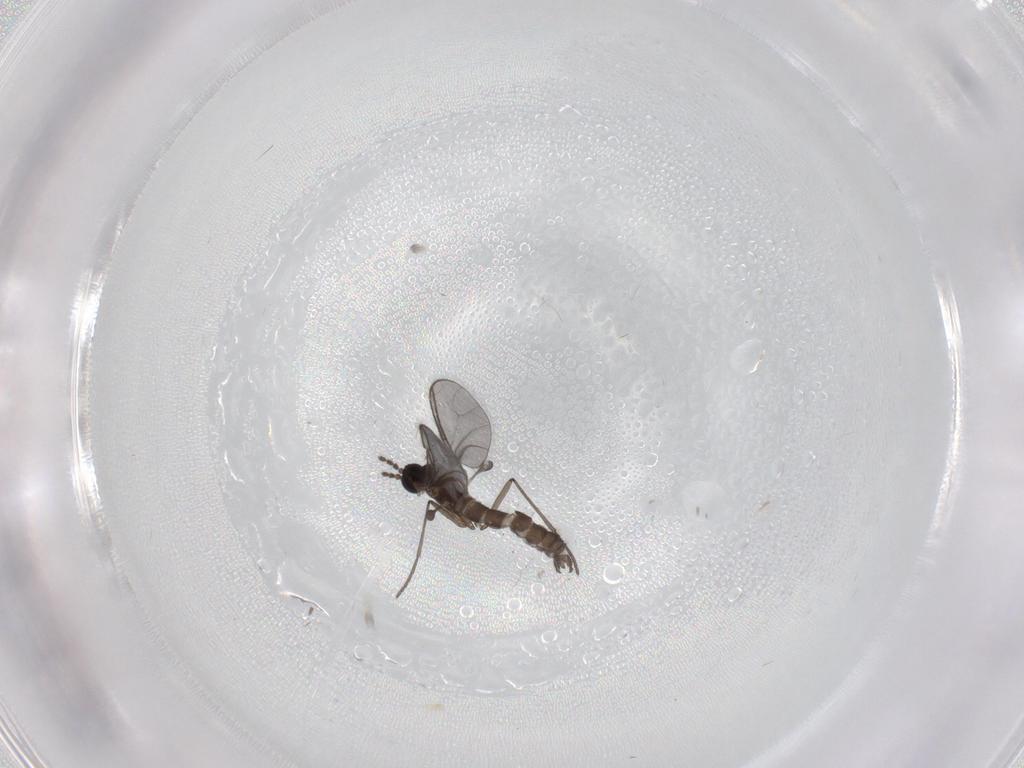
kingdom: Animalia
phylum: Arthropoda
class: Insecta
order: Diptera
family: Chironomidae
